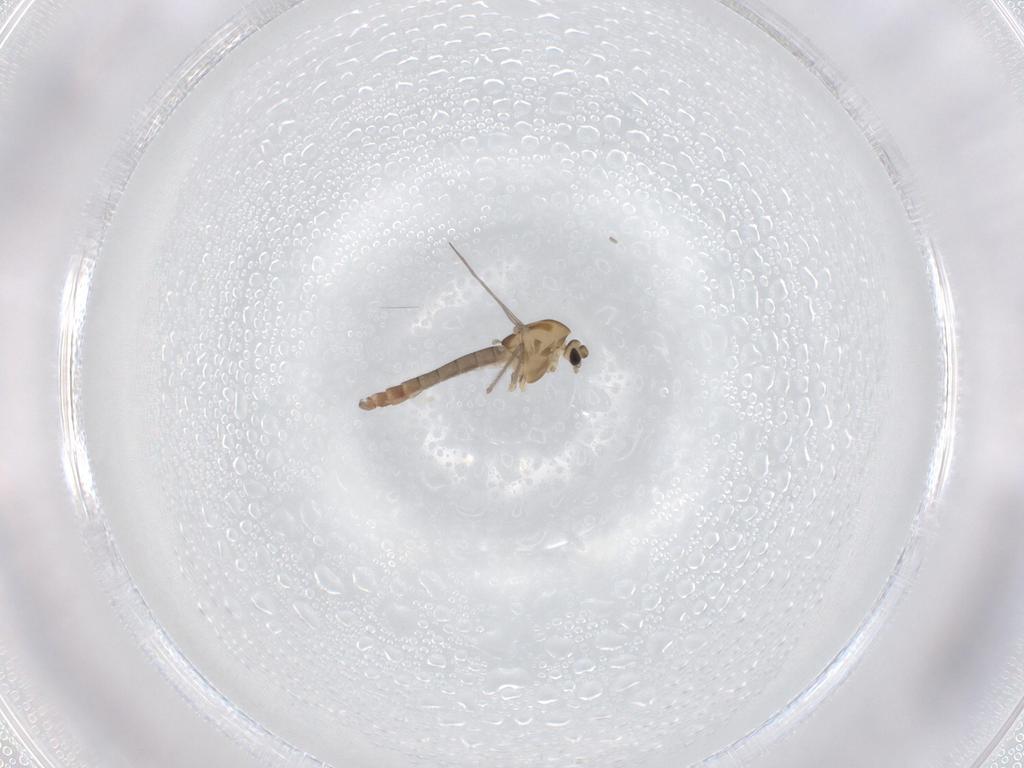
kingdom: Animalia
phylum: Arthropoda
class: Insecta
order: Diptera
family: Chironomidae
